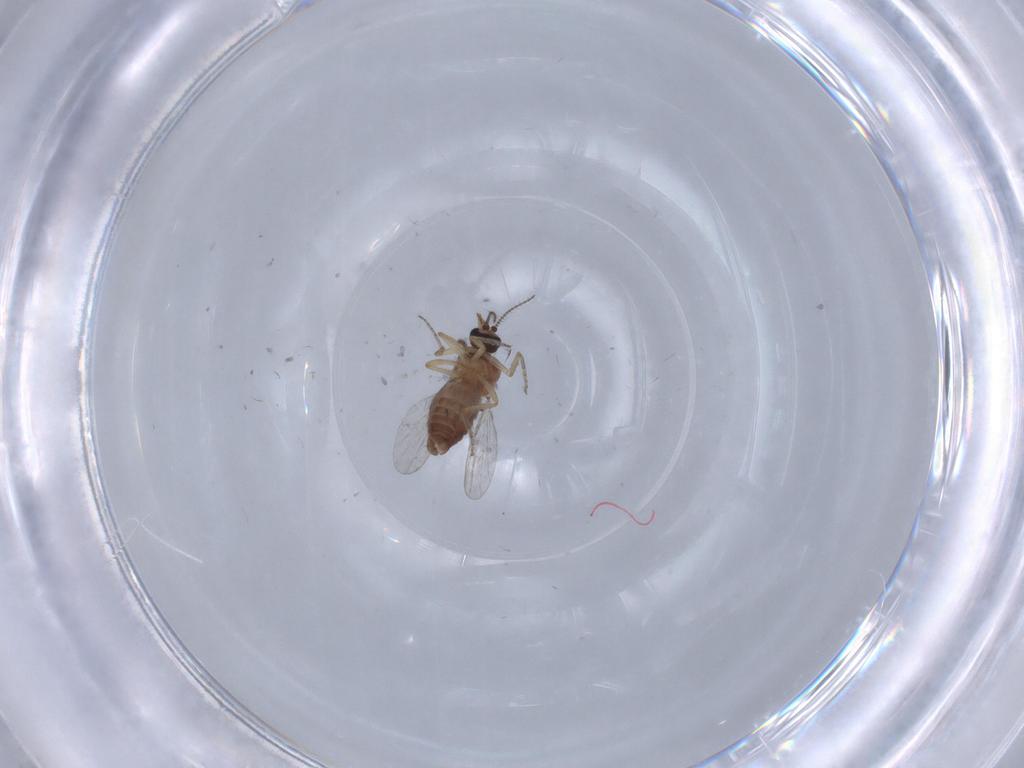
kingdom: Animalia
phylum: Arthropoda
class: Insecta
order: Diptera
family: Ceratopogonidae
